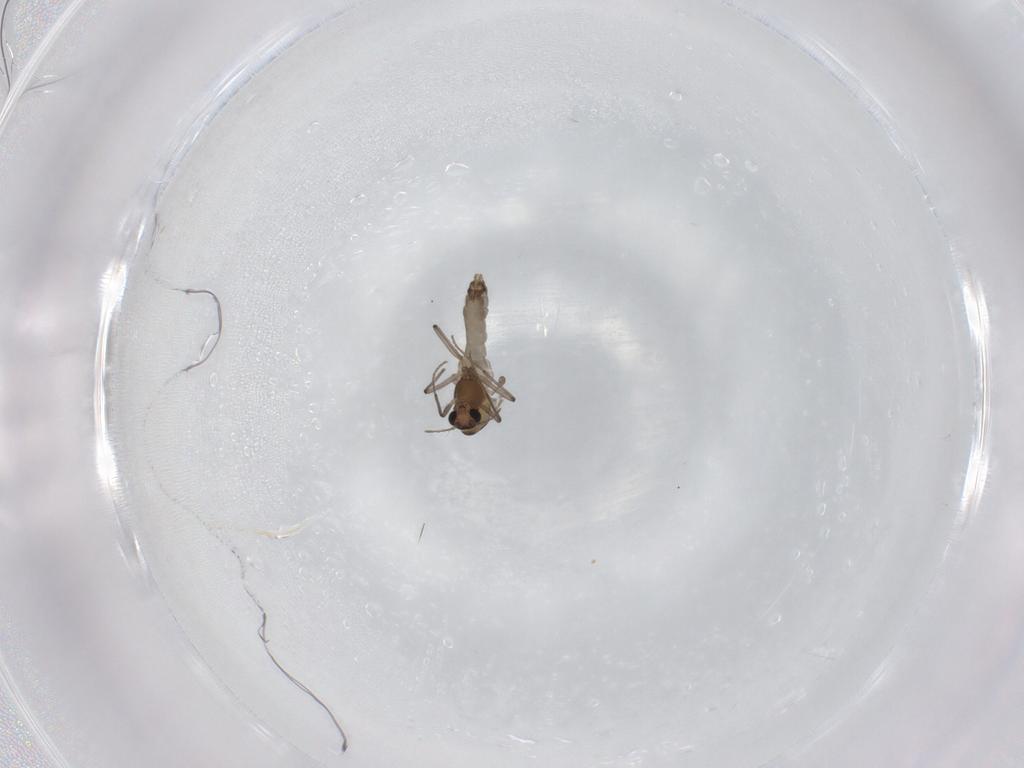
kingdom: Animalia
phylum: Arthropoda
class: Insecta
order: Diptera
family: Chironomidae
